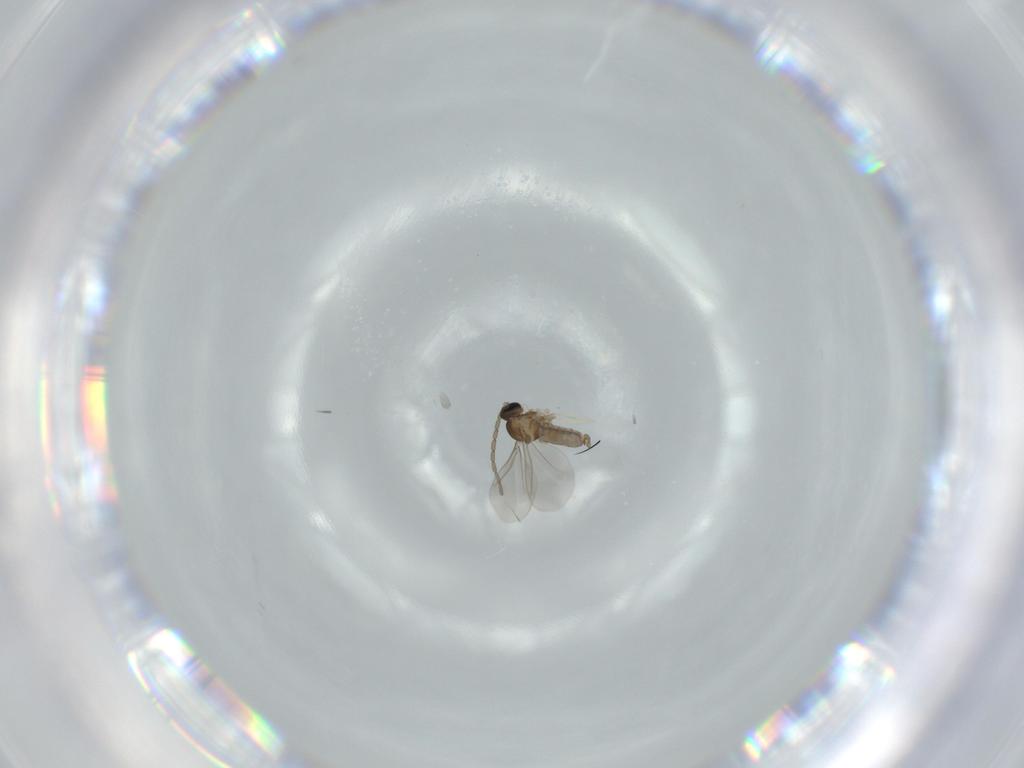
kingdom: Animalia
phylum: Arthropoda
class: Insecta
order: Diptera
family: Cecidomyiidae
